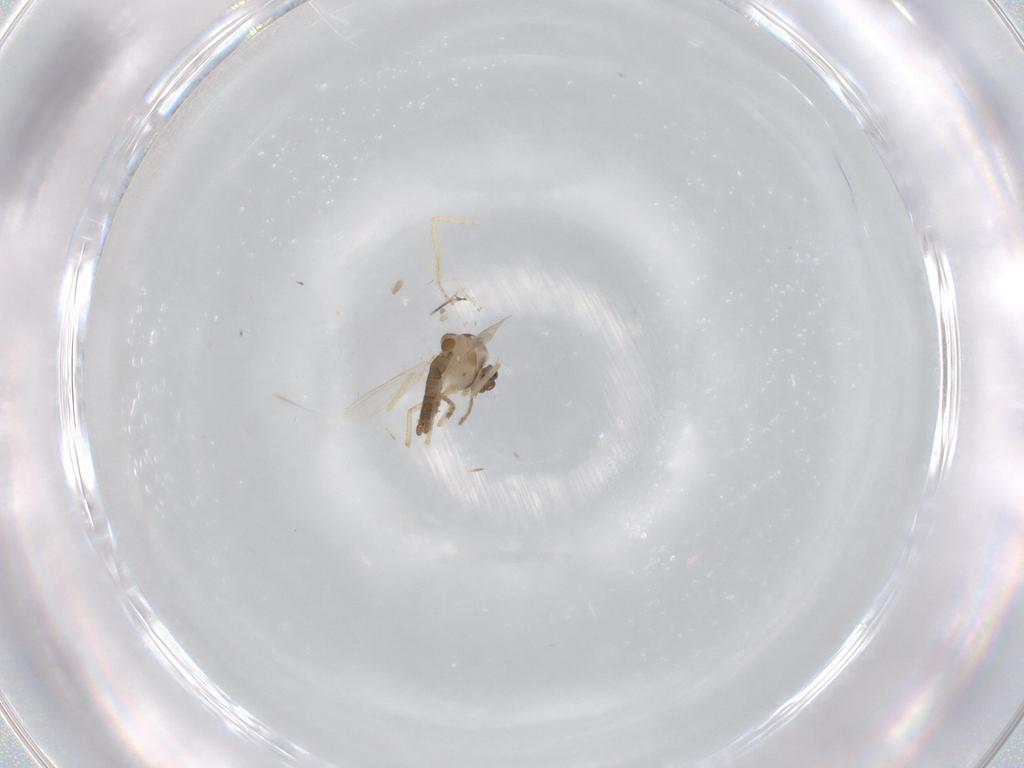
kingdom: Animalia
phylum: Arthropoda
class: Insecta
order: Diptera
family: Ceratopogonidae
